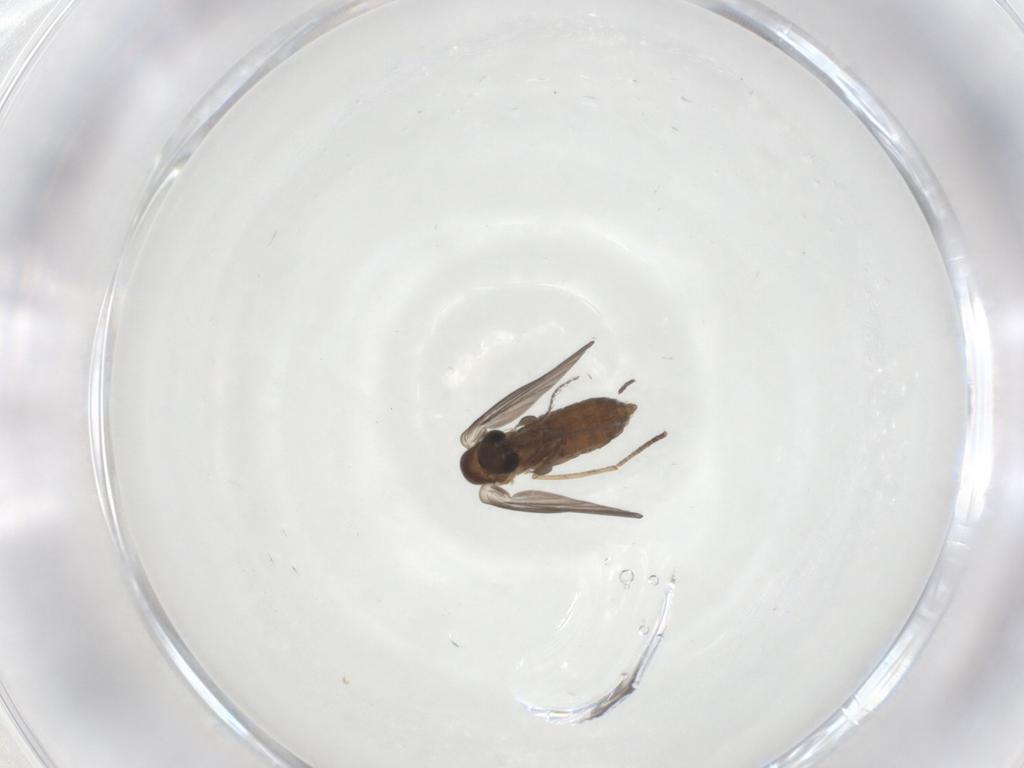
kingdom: Animalia
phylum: Arthropoda
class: Insecta
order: Diptera
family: Psychodidae
